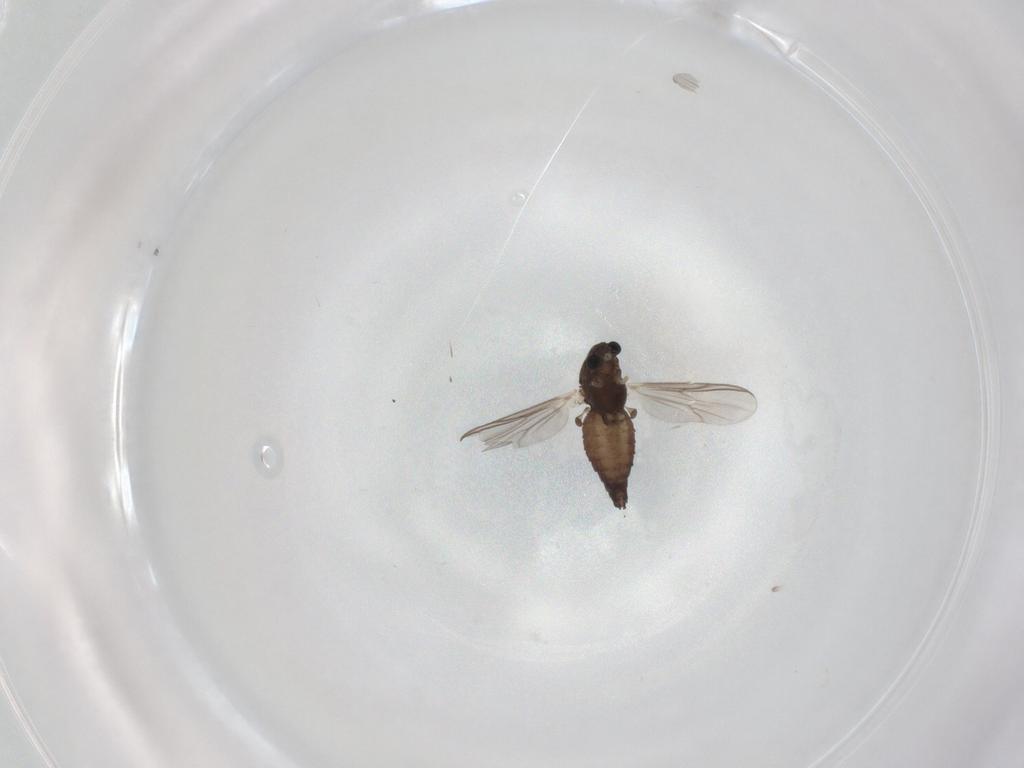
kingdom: Animalia
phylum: Arthropoda
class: Insecta
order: Diptera
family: Chironomidae
